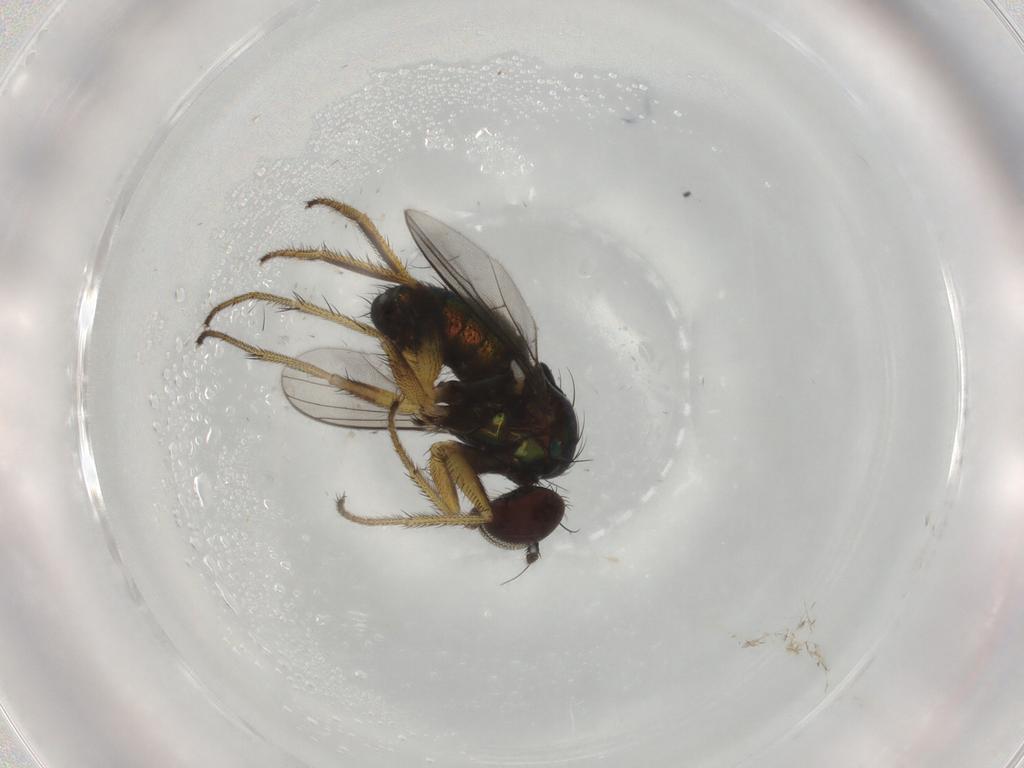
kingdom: Animalia
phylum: Arthropoda
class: Insecta
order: Diptera
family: Dolichopodidae
